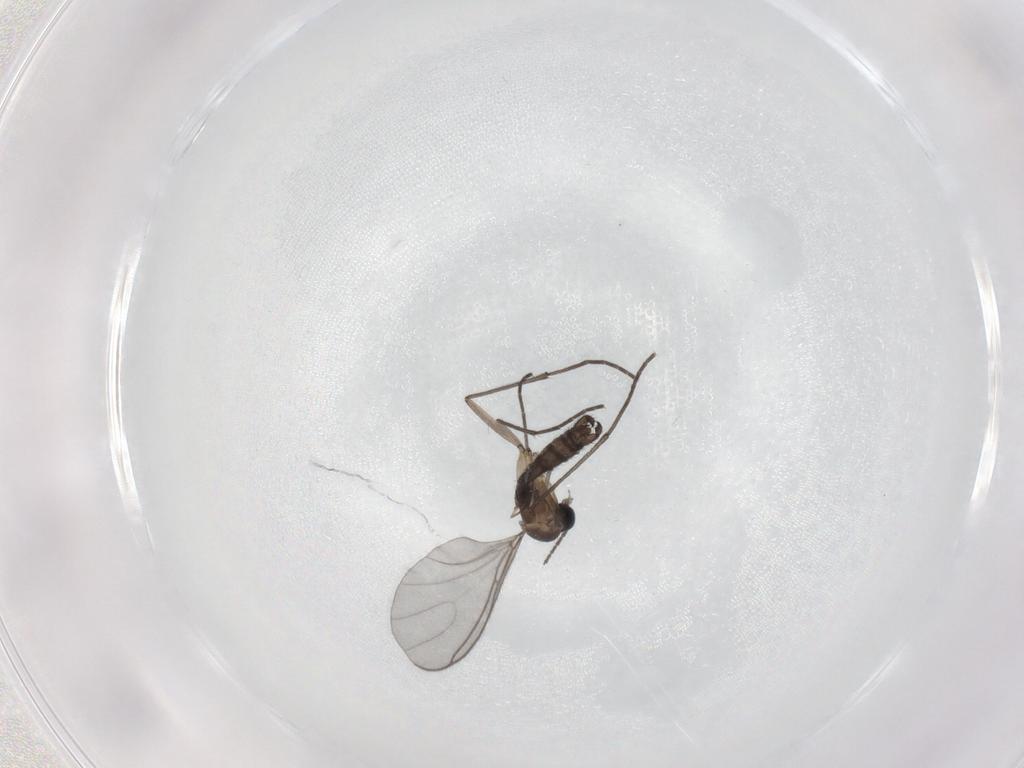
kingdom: Animalia
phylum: Arthropoda
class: Insecta
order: Diptera
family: Sciaridae
